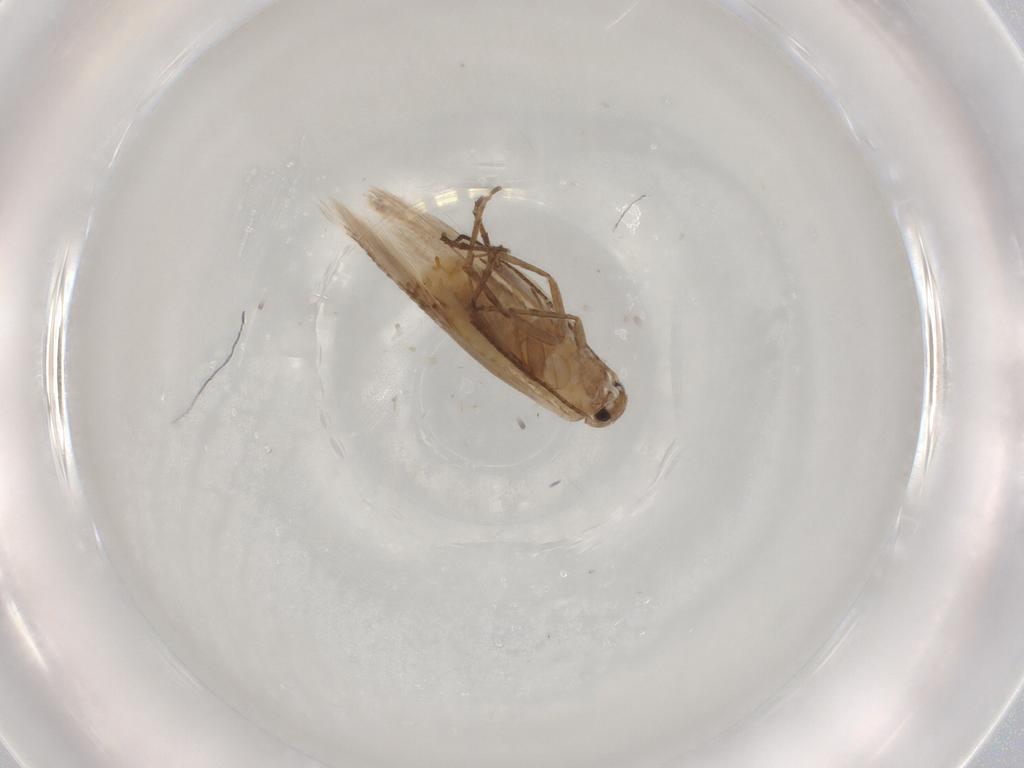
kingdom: Animalia
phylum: Arthropoda
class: Insecta
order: Lepidoptera
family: Bucculatricidae
